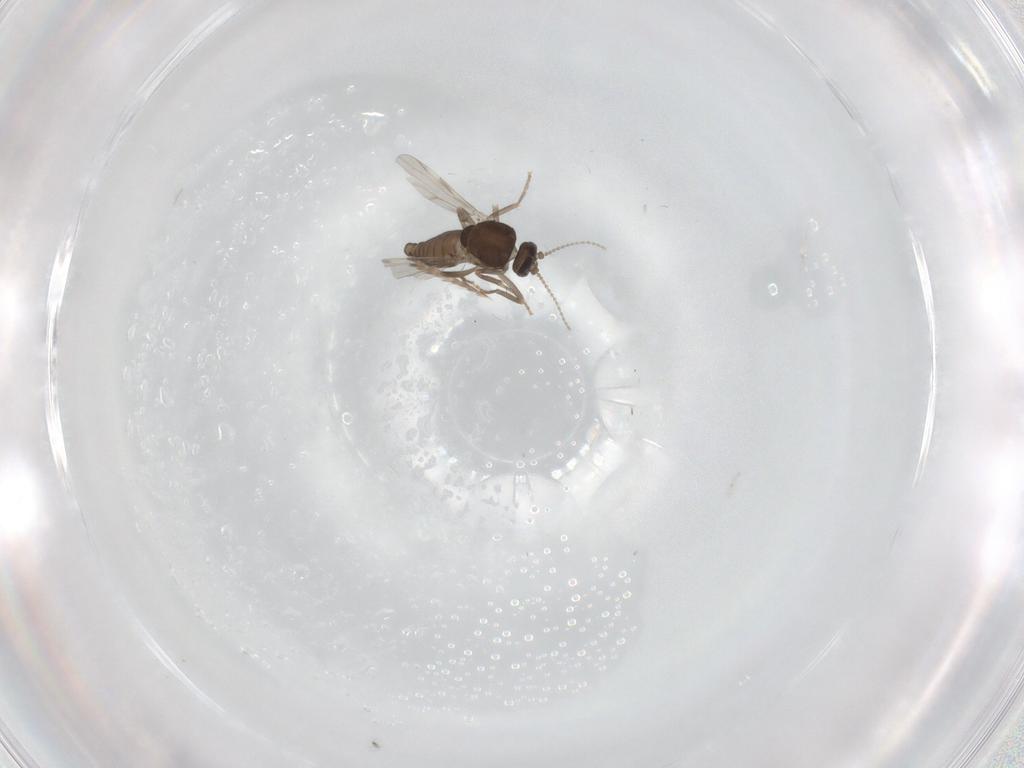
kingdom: Animalia
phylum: Arthropoda
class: Insecta
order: Diptera
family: Ceratopogonidae
